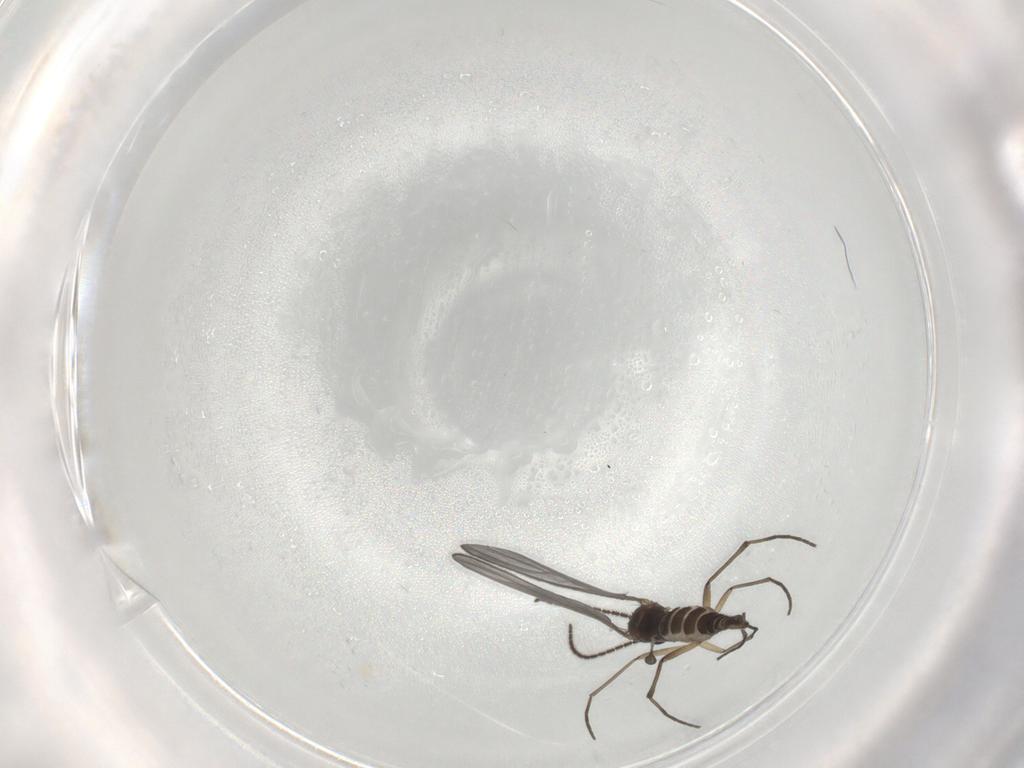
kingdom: Animalia
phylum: Arthropoda
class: Insecta
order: Diptera
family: Sciaridae
